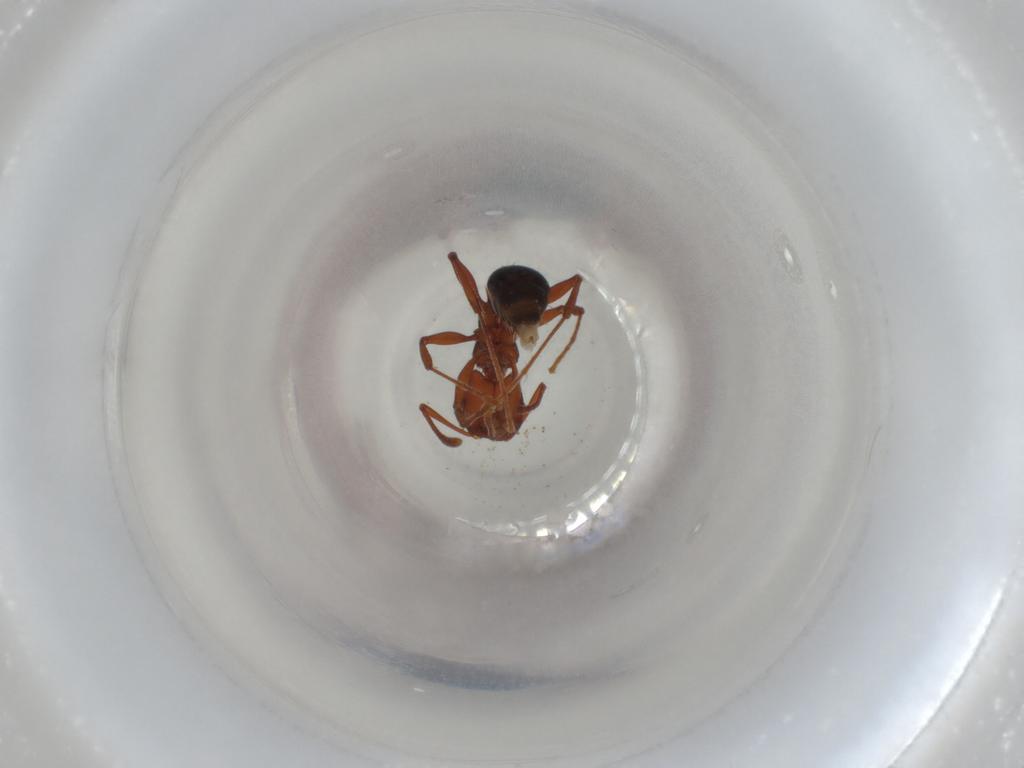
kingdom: Animalia
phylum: Arthropoda
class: Insecta
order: Hymenoptera
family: Formicidae
